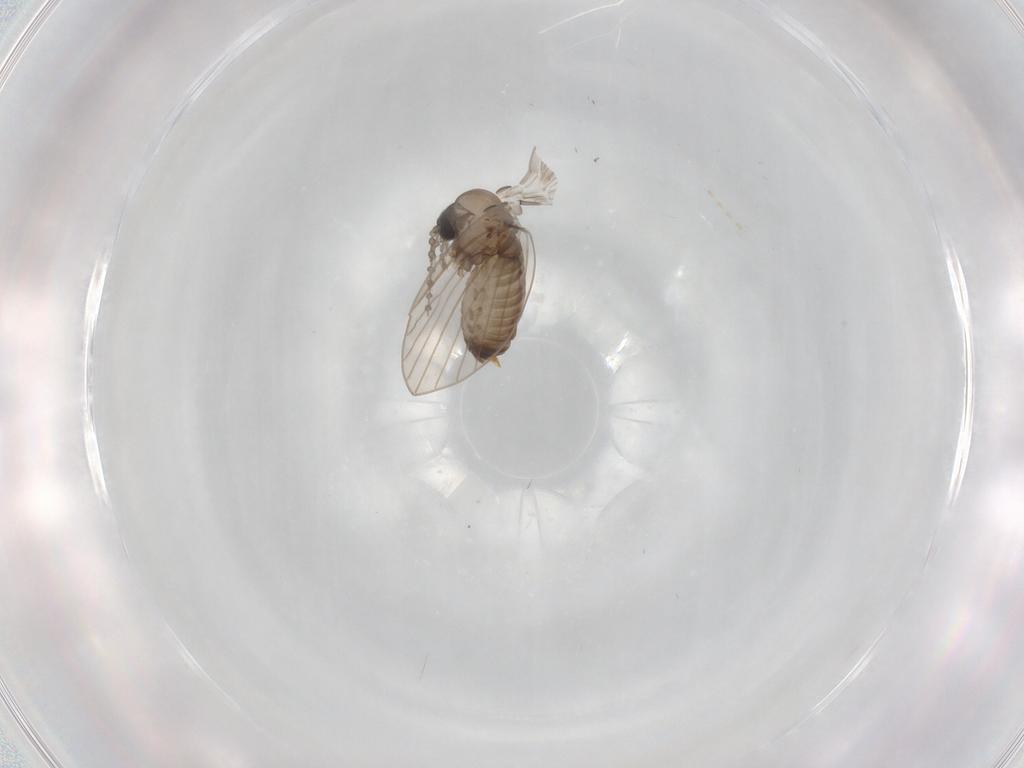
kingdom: Animalia
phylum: Arthropoda
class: Insecta
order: Diptera
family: Psychodidae
